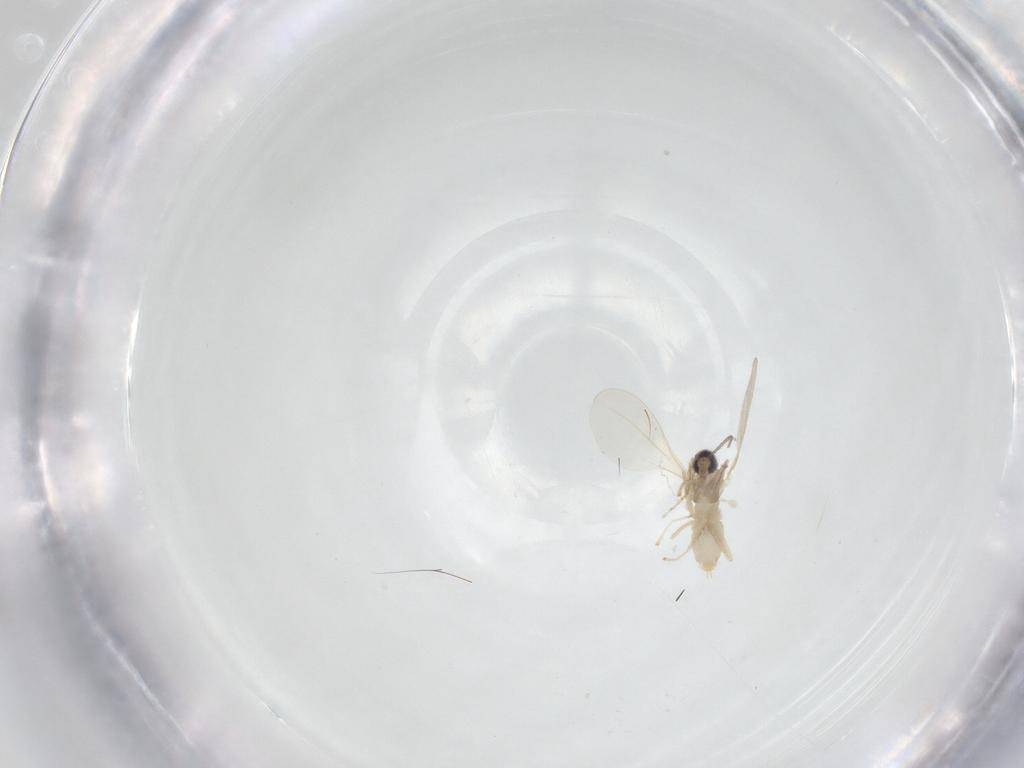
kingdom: Animalia
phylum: Arthropoda
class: Insecta
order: Diptera
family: Cecidomyiidae
